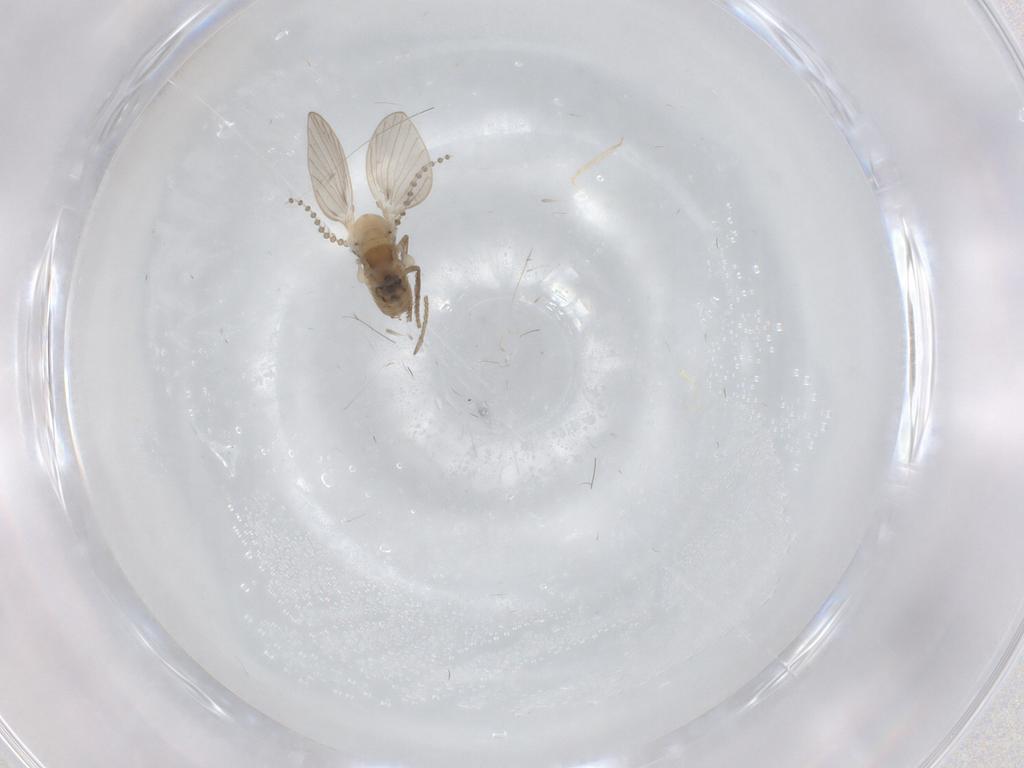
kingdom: Animalia
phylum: Arthropoda
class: Insecta
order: Diptera
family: Psychodidae
